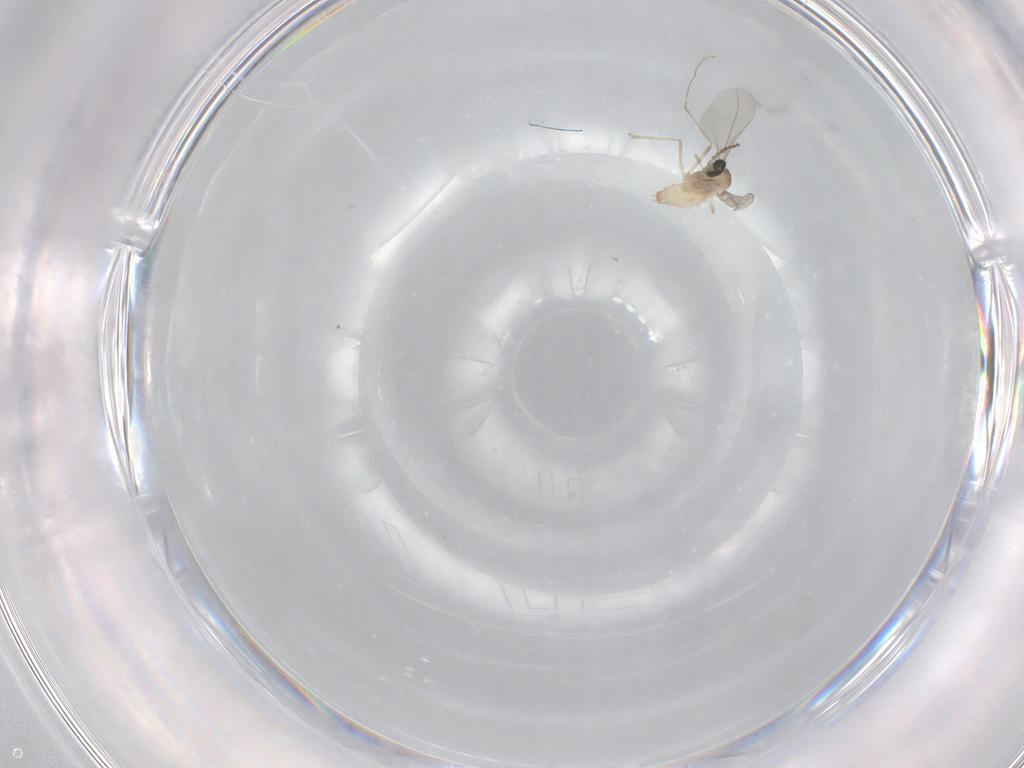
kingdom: Animalia
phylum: Arthropoda
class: Insecta
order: Diptera
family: Cecidomyiidae
